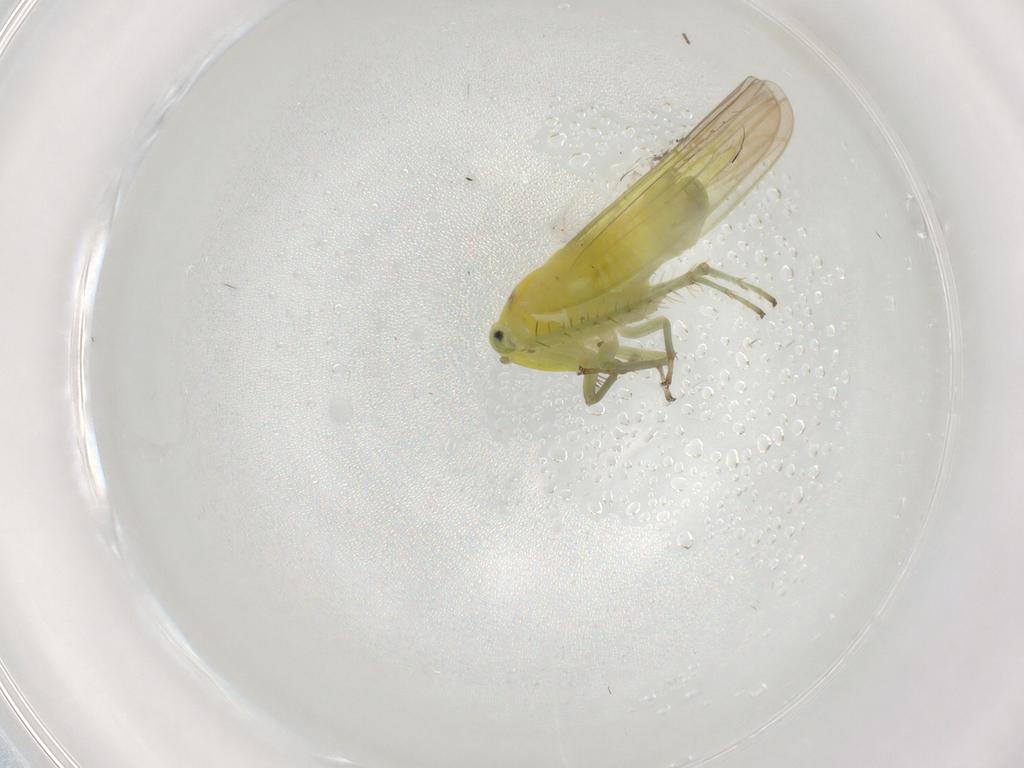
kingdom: Animalia
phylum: Arthropoda
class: Insecta
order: Hemiptera
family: Cicadellidae
